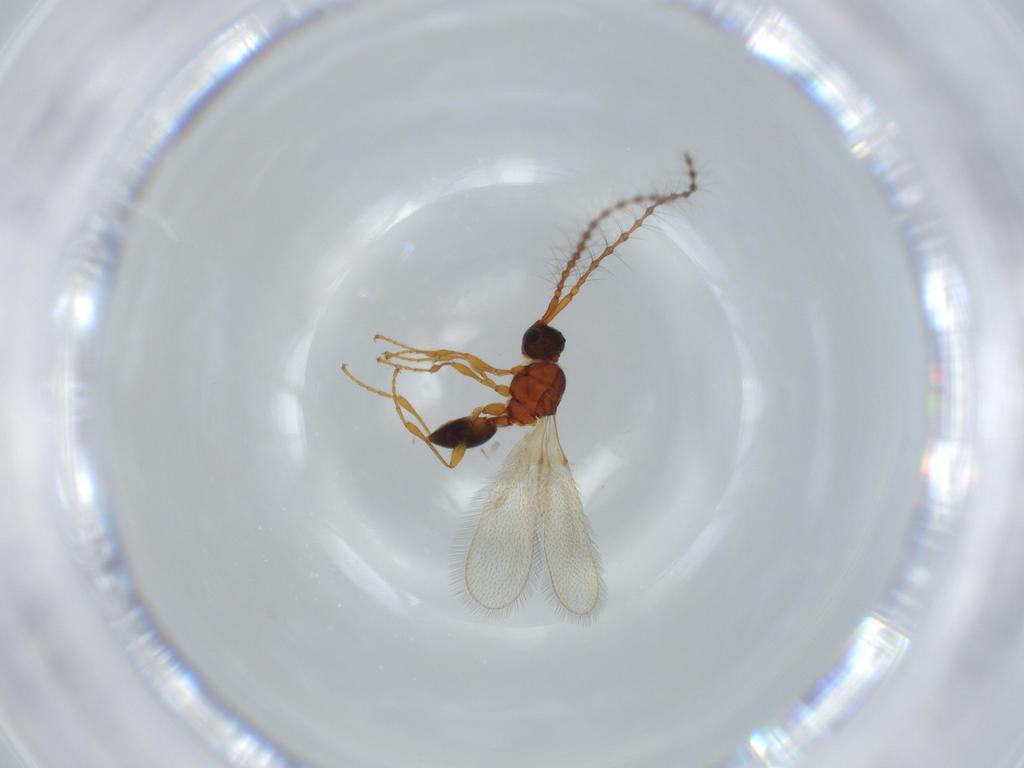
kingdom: Animalia
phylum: Arthropoda
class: Insecta
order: Hymenoptera
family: Diapriidae
